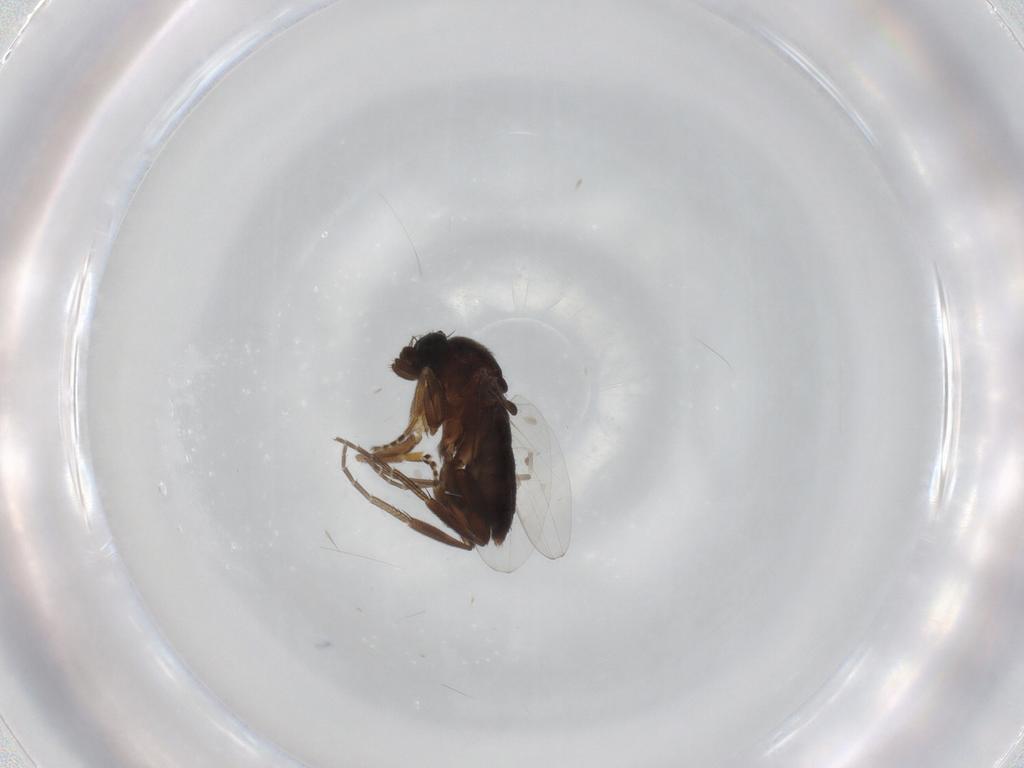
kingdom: Animalia
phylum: Arthropoda
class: Insecta
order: Diptera
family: Phoridae
